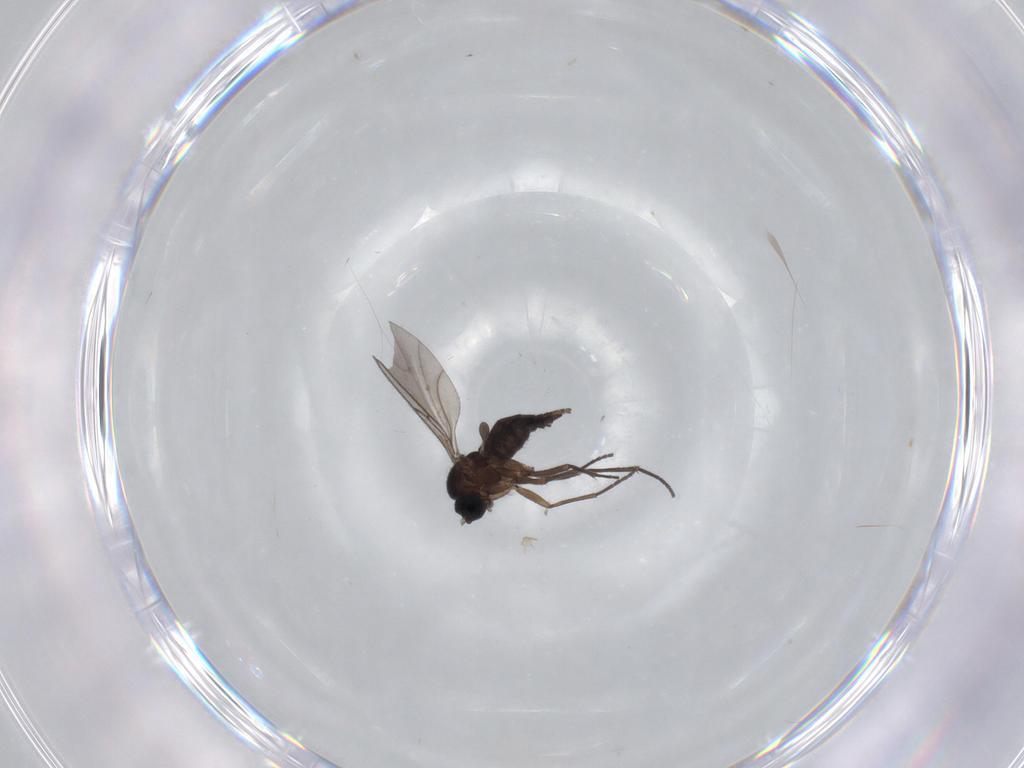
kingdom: Animalia
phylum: Arthropoda
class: Insecta
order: Diptera
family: Sciaridae
